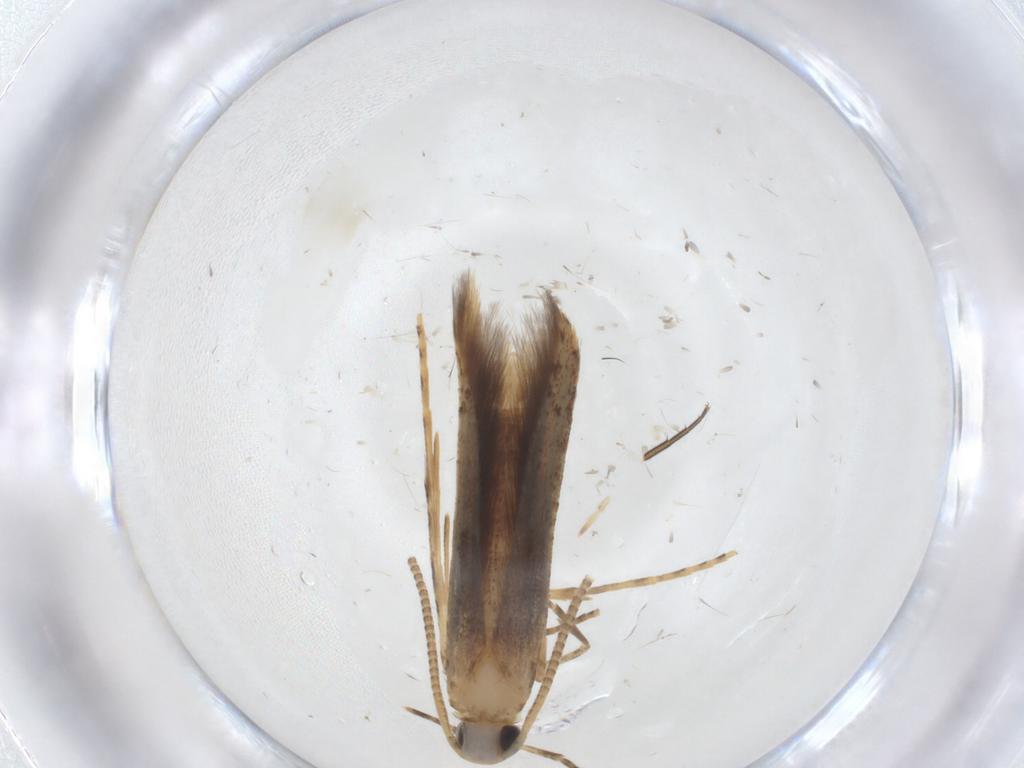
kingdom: Animalia
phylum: Arthropoda
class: Insecta
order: Lepidoptera
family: Batrachedridae
